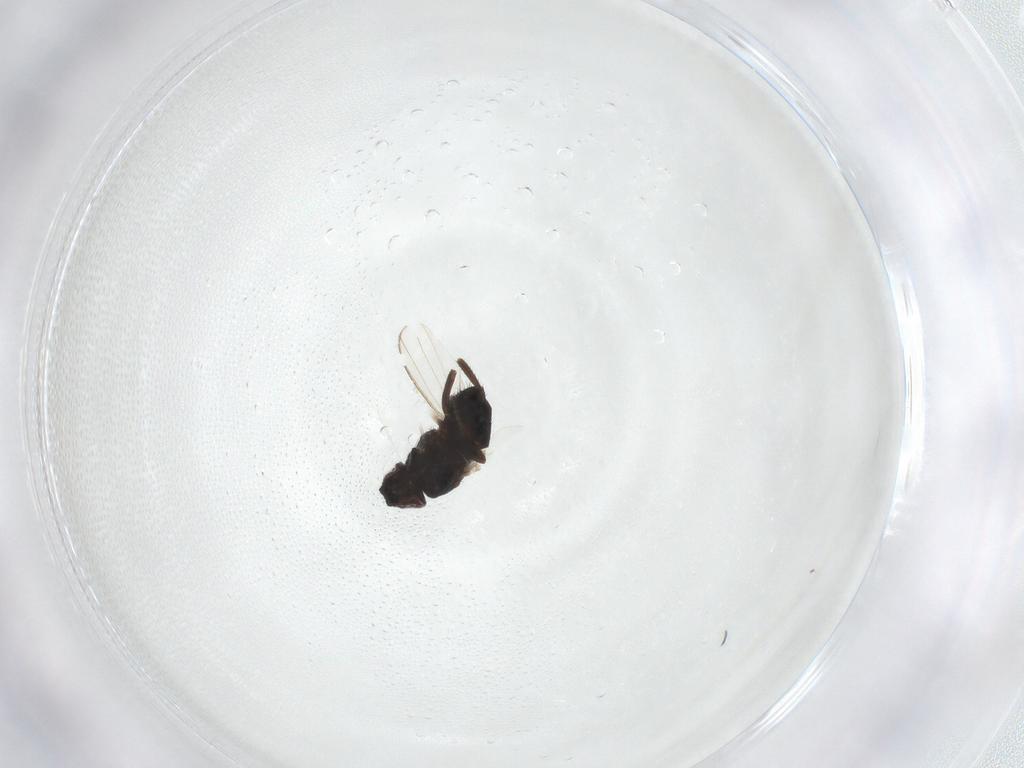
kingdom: Animalia
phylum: Arthropoda
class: Insecta
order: Diptera
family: Milichiidae
